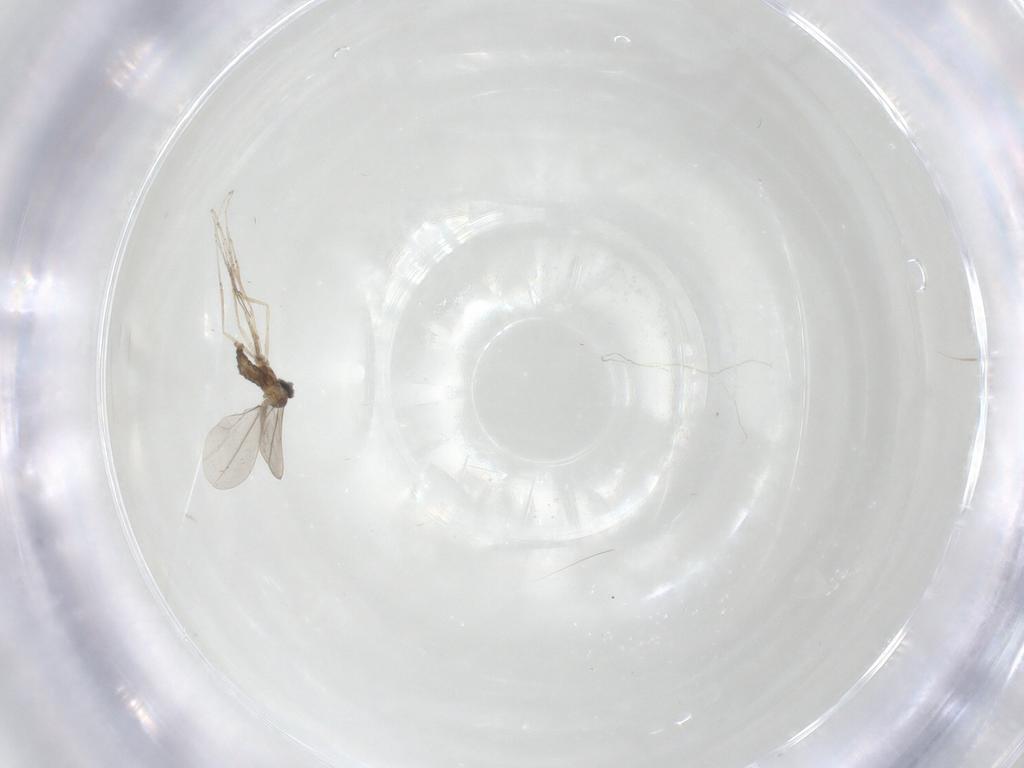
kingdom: Animalia
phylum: Arthropoda
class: Insecta
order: Diptera
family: Cecidomyiidae
